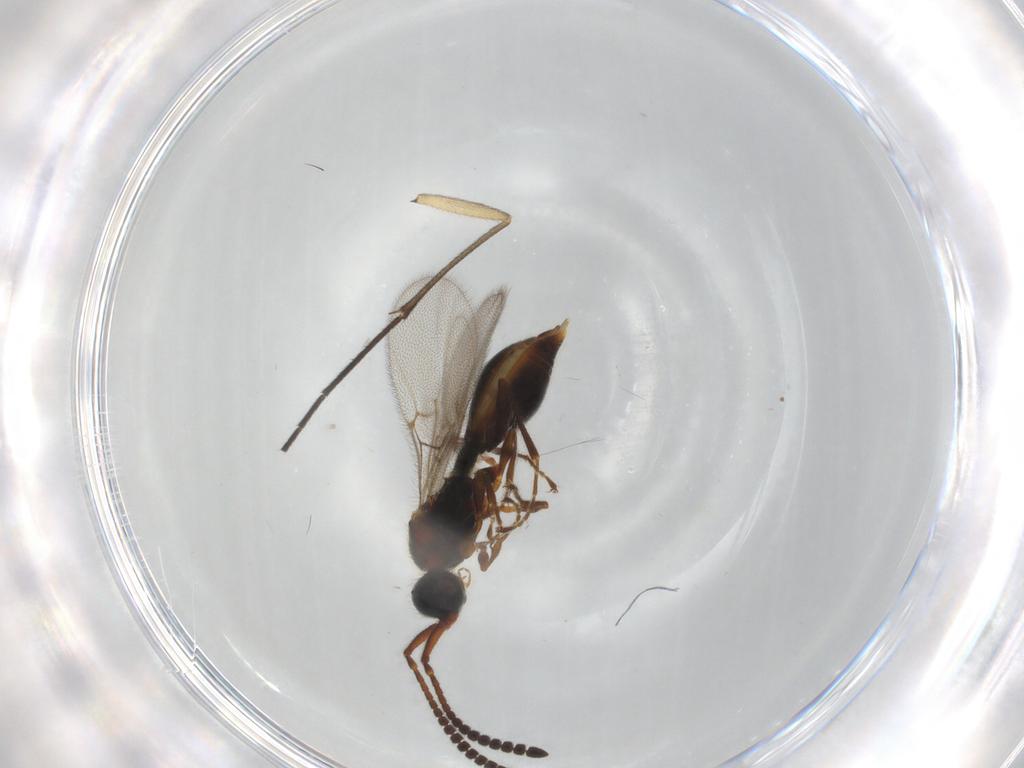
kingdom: Animalia
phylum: Arthropoda
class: Insecta
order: Hymenoptera
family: Diapriidae
